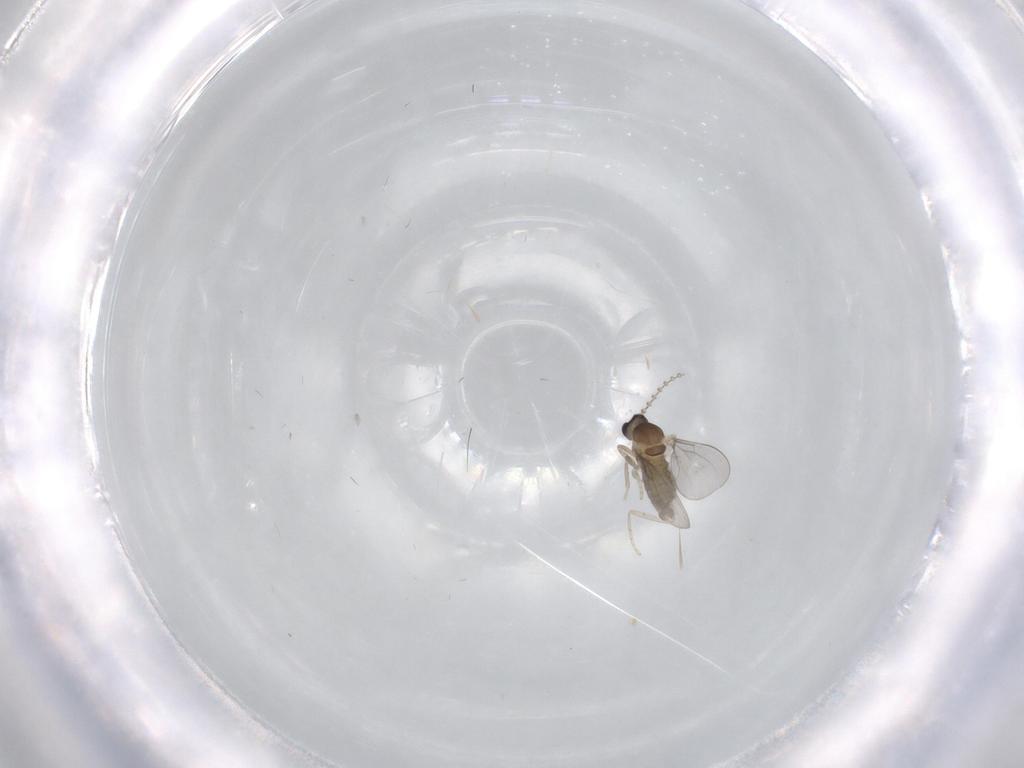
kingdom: Animalia
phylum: Arthropoda
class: Insecta
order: Diptera
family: Cecidomyiidae
